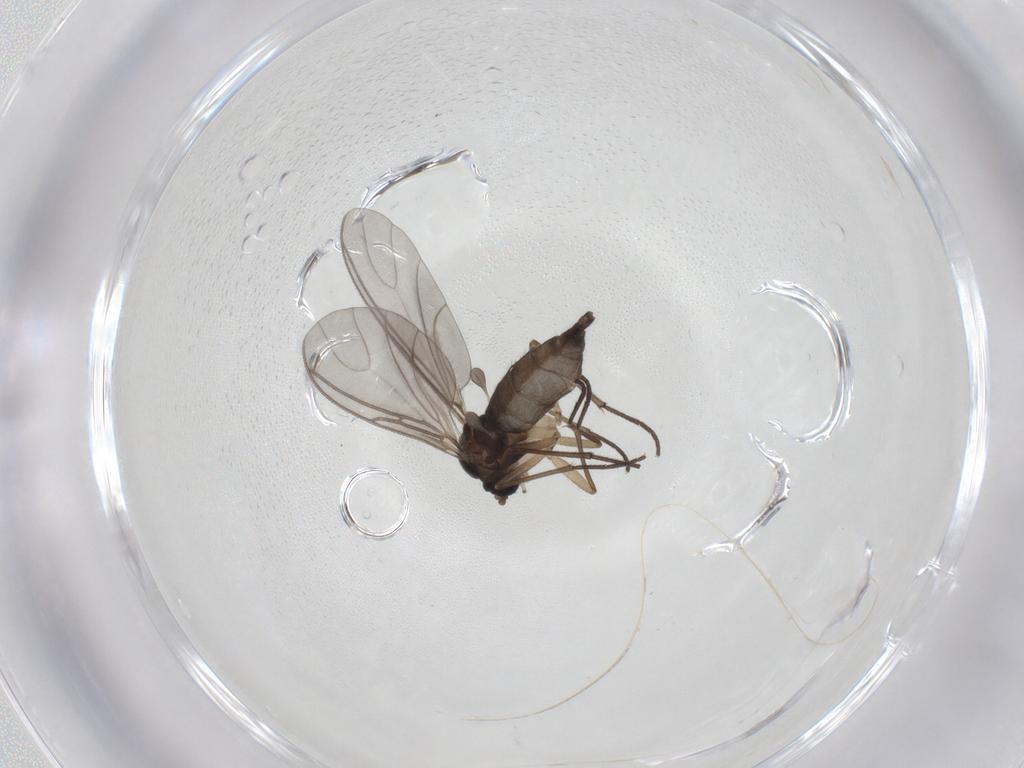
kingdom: Animalia
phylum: Arthropoda
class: Insecta
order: Diptera
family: Sciaridae
